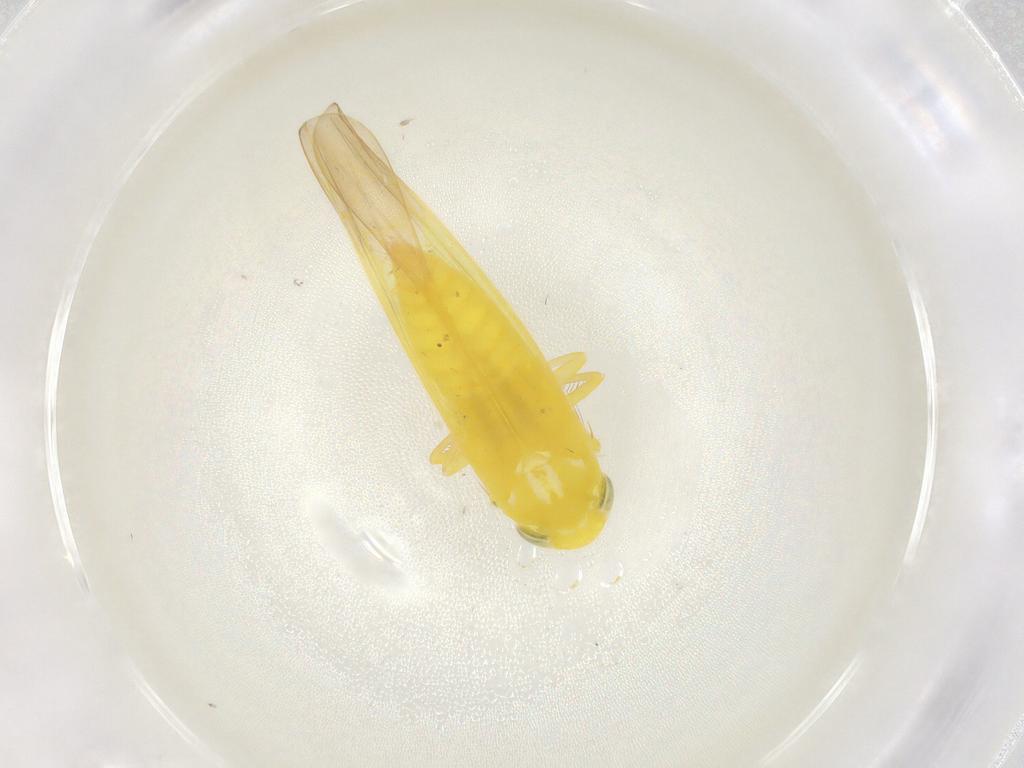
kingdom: Animalia
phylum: Arthropoda
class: Insecta
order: Hemiptera
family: Cicadellidae
